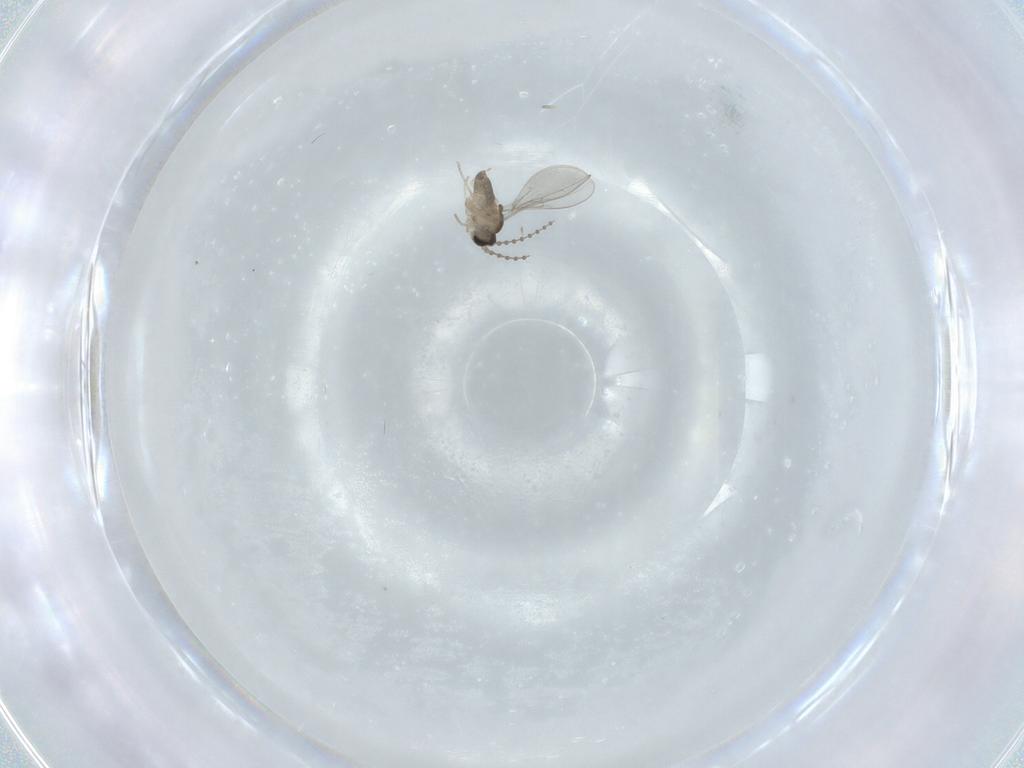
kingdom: Animalia
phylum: Arthropoda
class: Insecta
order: Diptera
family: Cecidomyiidae
